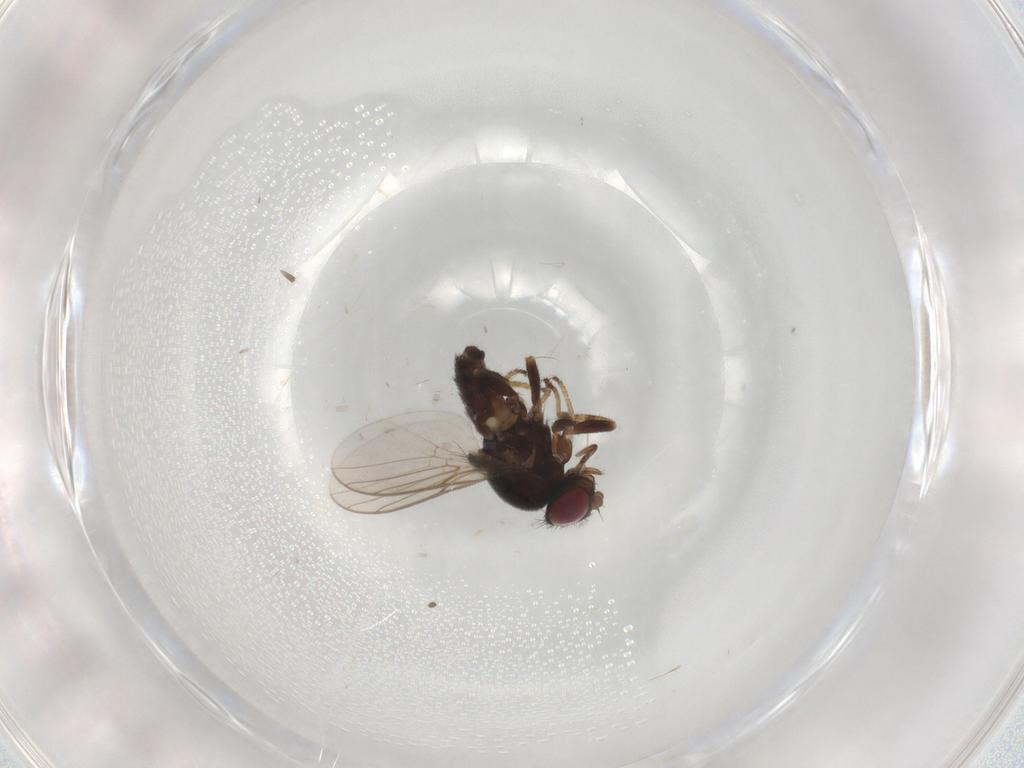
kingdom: Animalia
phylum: Arthropoda
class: Insecta
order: Diptera
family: Chloropidae
